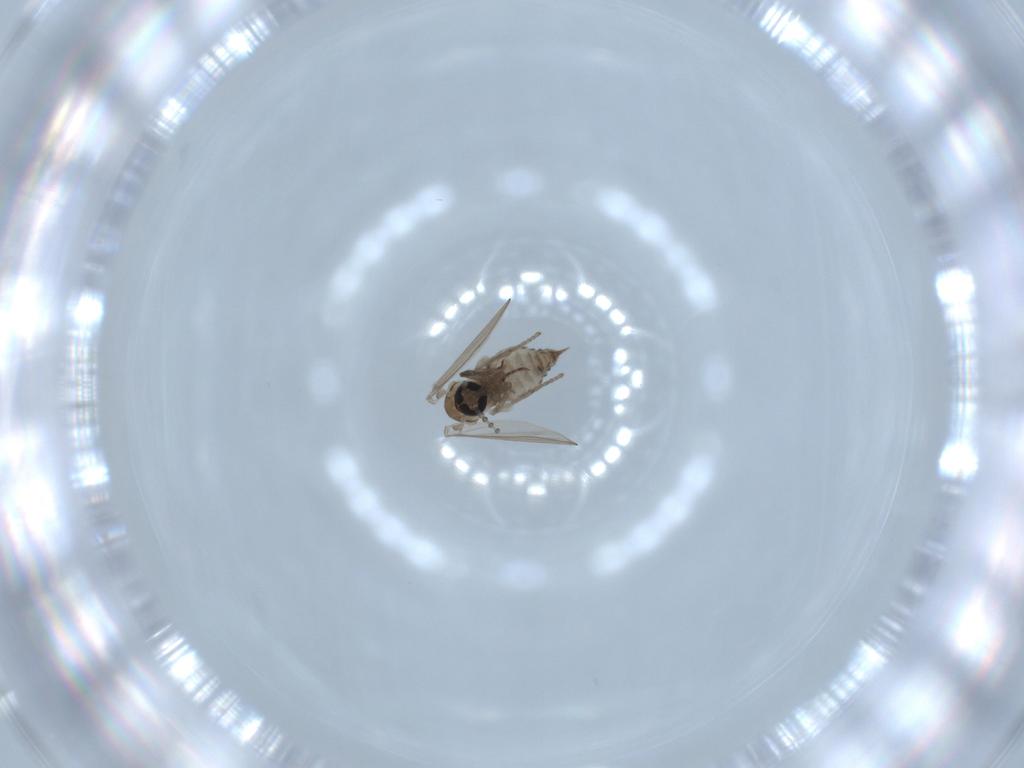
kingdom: Animalia
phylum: Arthropoda
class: Insecta
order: Diptera
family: Psychodidae
